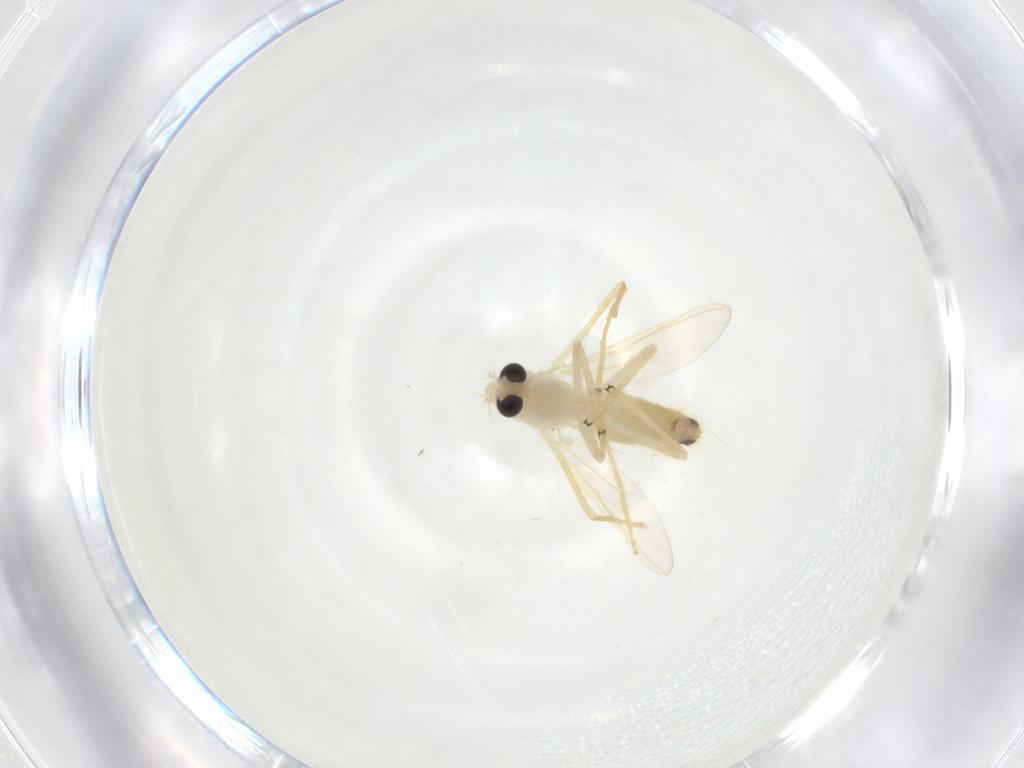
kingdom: Animalia
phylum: Arthropoda
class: Insecta
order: Diptera
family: Chironomidae
